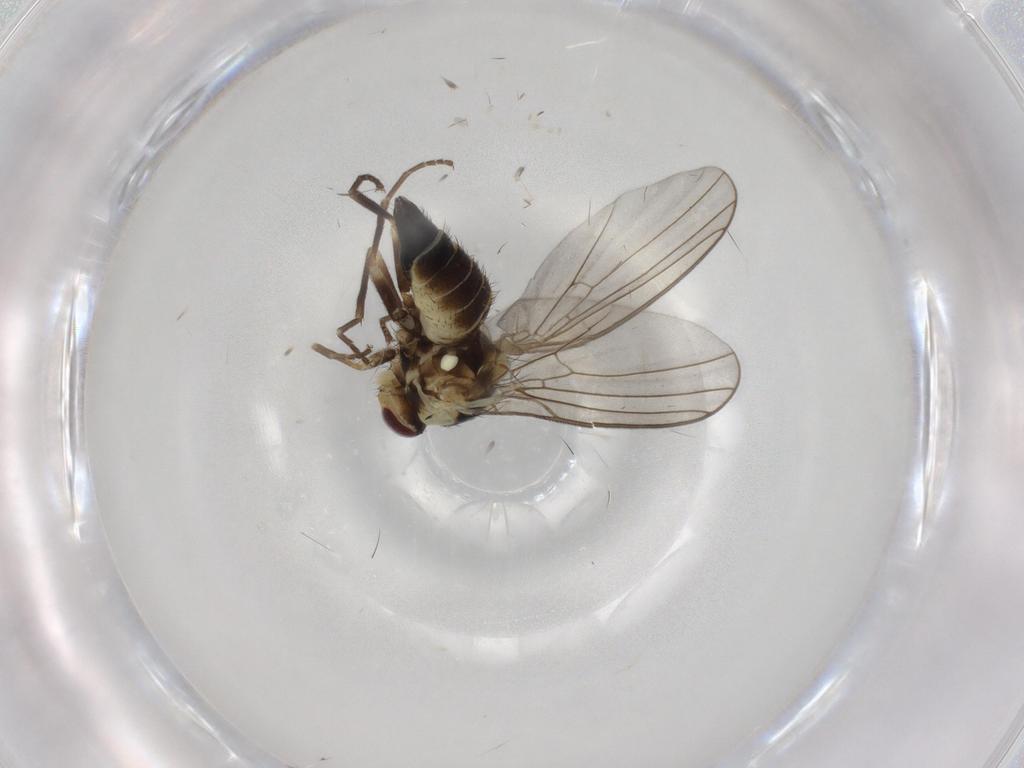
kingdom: Animalia
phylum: Arthropoda
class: Insecta
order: Diptera
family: Agromyzidae
